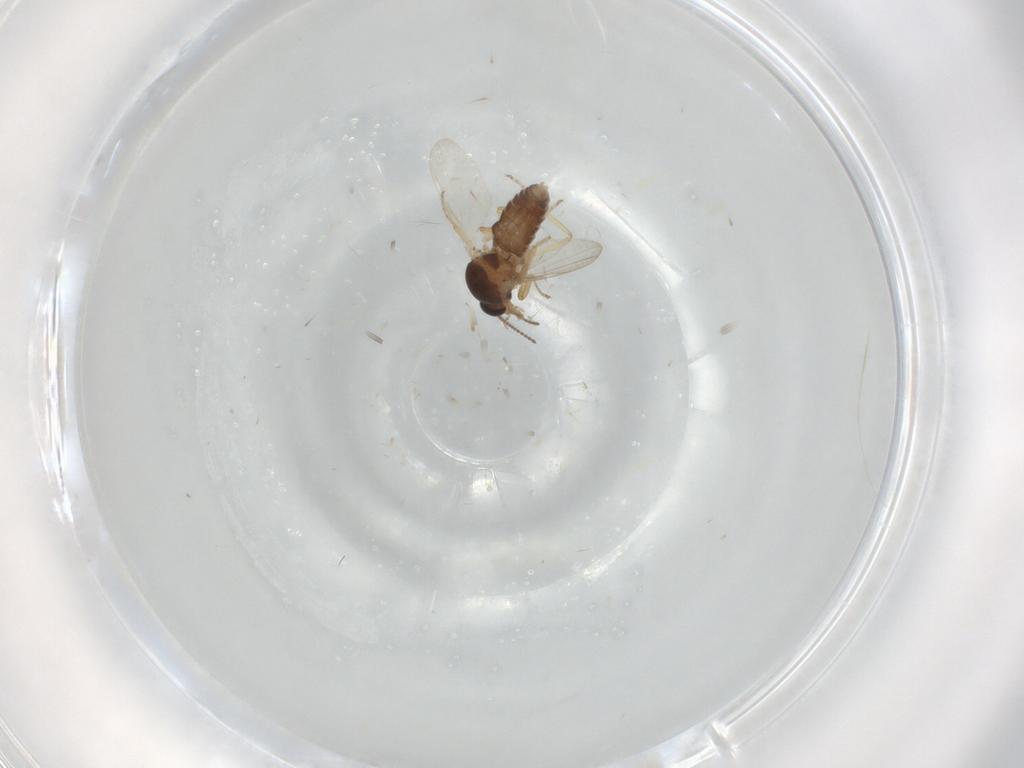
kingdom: Animalia
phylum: Arthropoda
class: Insecta
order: Diptera
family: Ceratopogonidae
